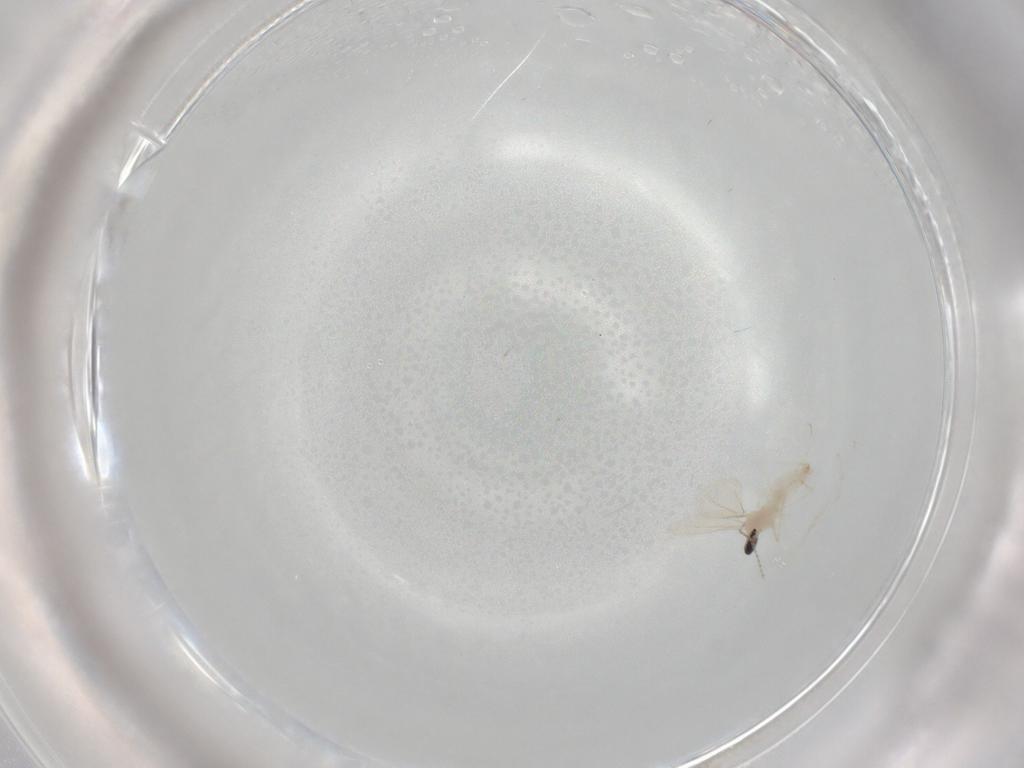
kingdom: Animalia
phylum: Arthropoda
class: Insecta
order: Diptera
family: Cecidomyiidae
